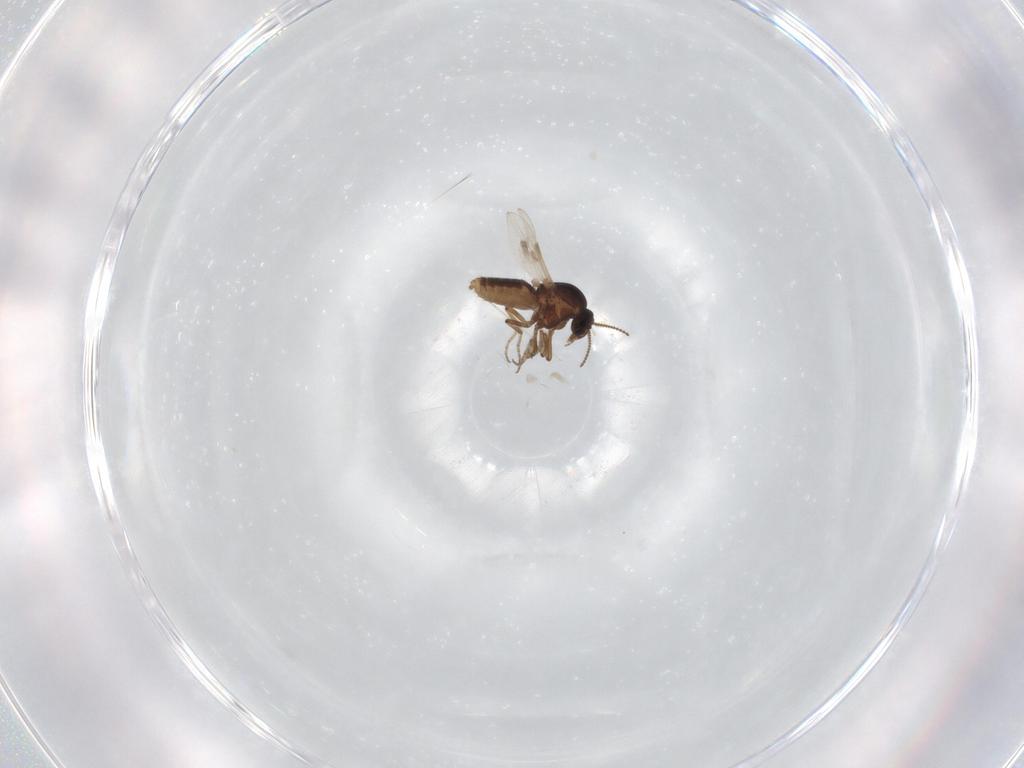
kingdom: Animalia
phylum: Arthropoda
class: Insecta
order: Diptera
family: Ceratopogonidae
